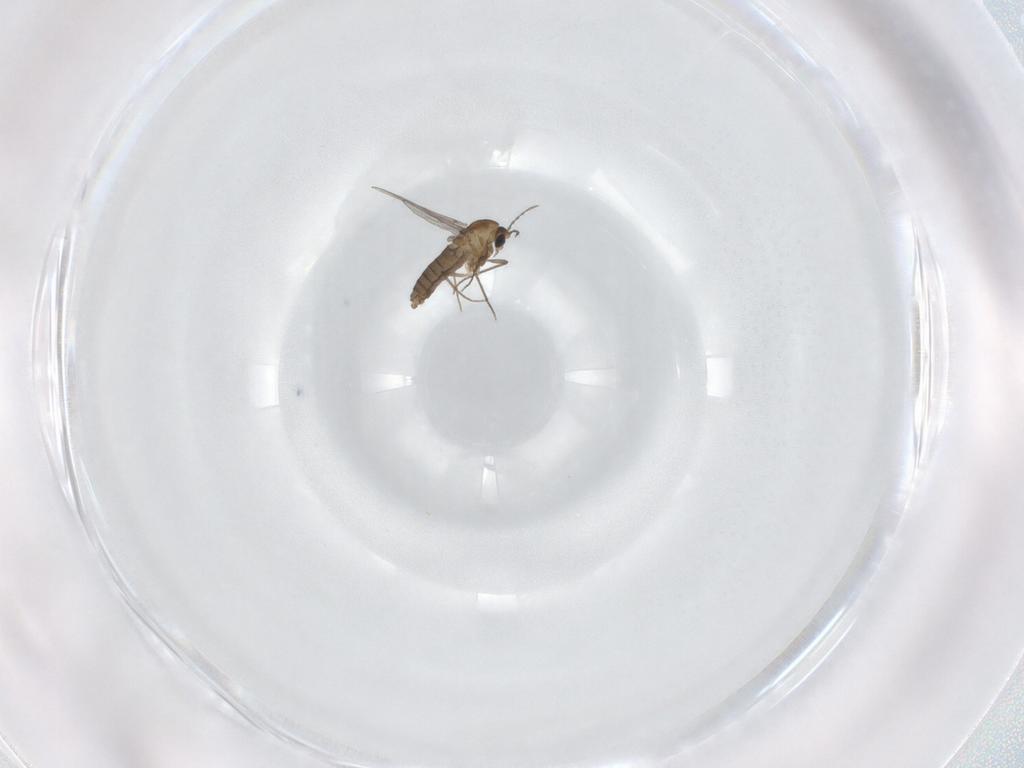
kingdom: Animalia
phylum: Arthropoda
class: Insecta
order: Diptera
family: Chironomidae
